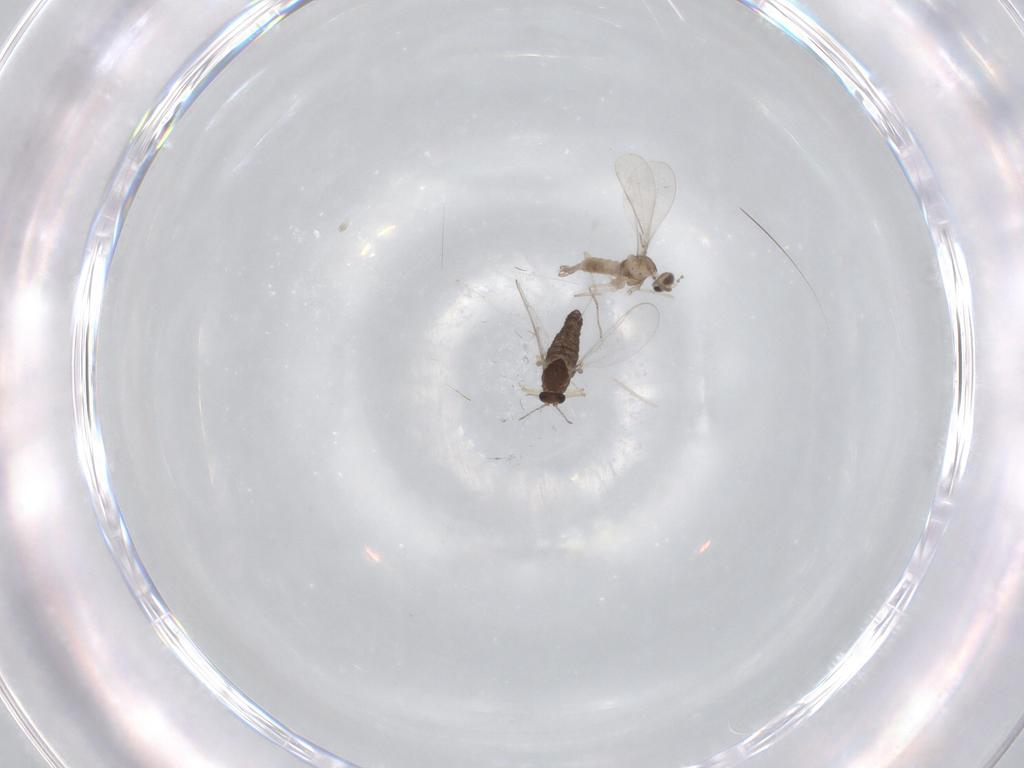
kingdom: Animalia
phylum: Arthropoda
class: Insecta
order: Diptera
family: Chironomidae
